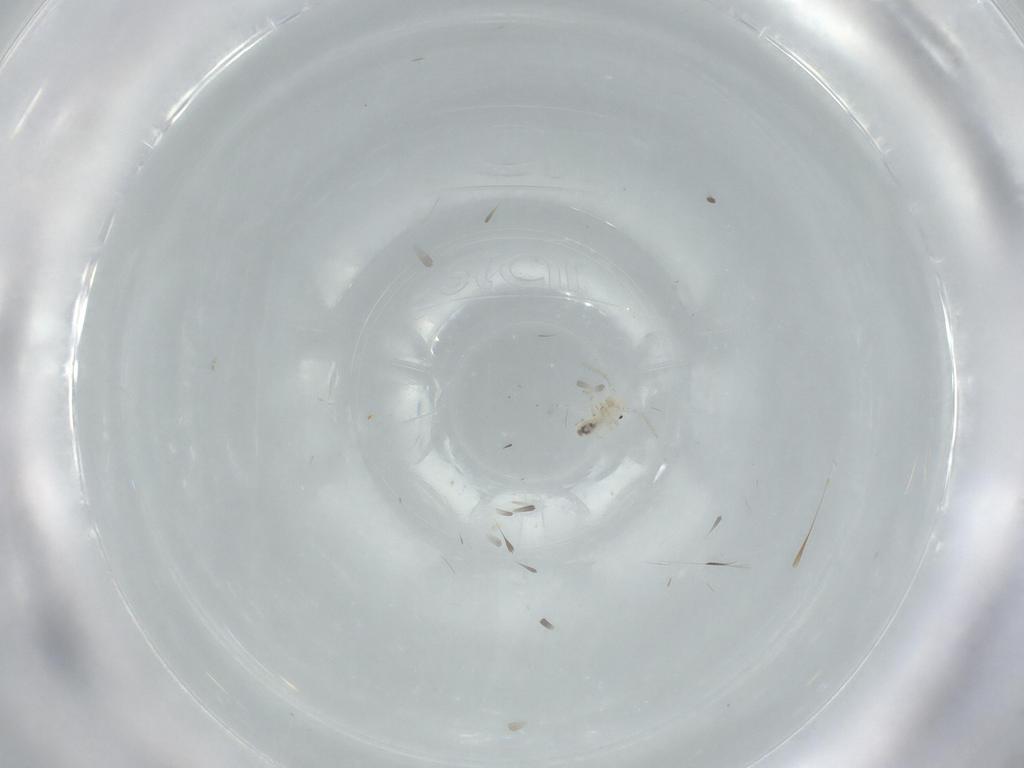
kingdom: Animalia
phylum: Arthropoda
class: Insecta
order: Psocodea
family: Caeciliusidae
